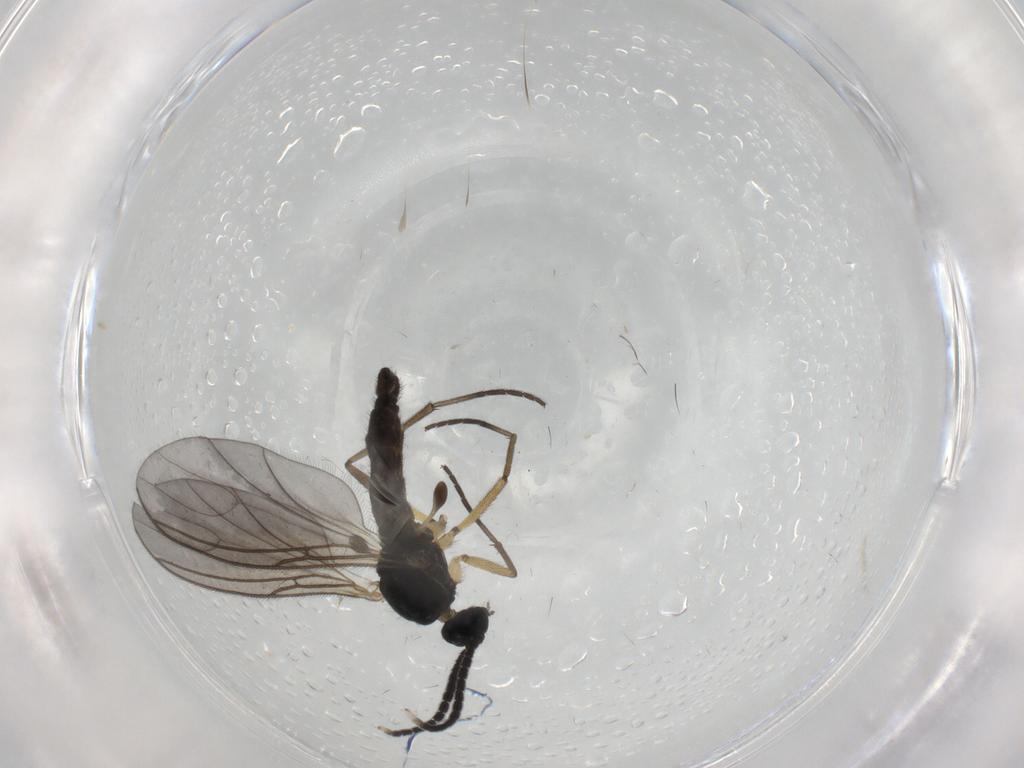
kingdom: Animalia
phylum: Arthropoda
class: Insecta
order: Diptera
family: Sciaridae
